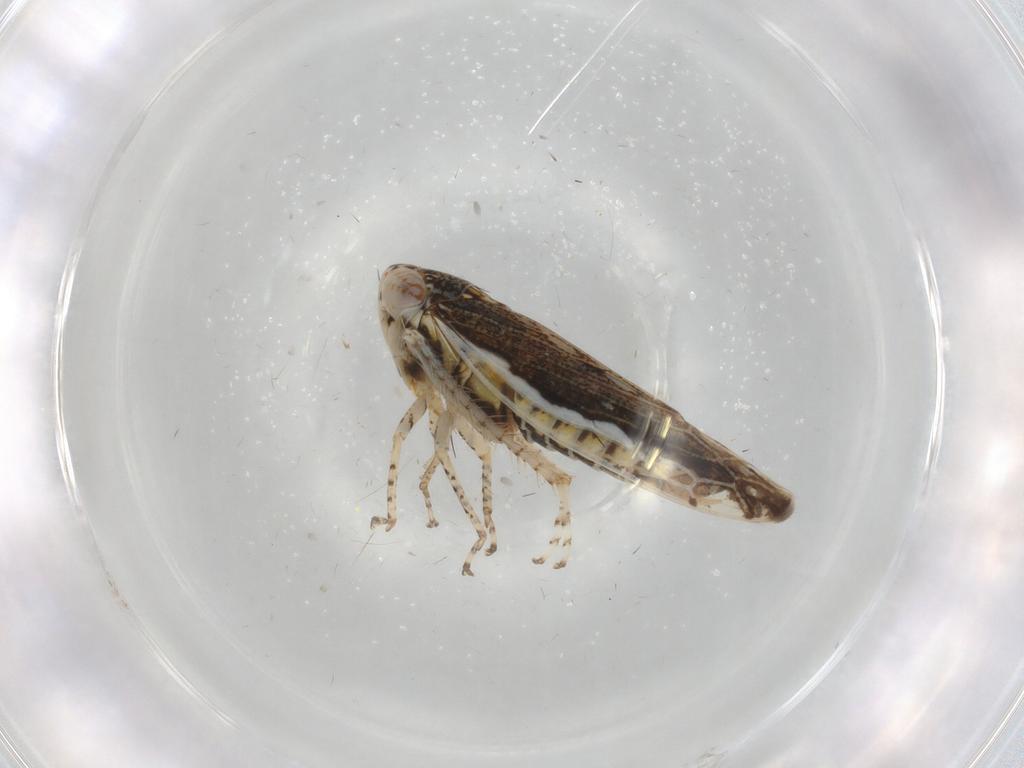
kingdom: Animalia
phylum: Arthropoda
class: Insecta
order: Hemiptera
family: Cicadellidae
